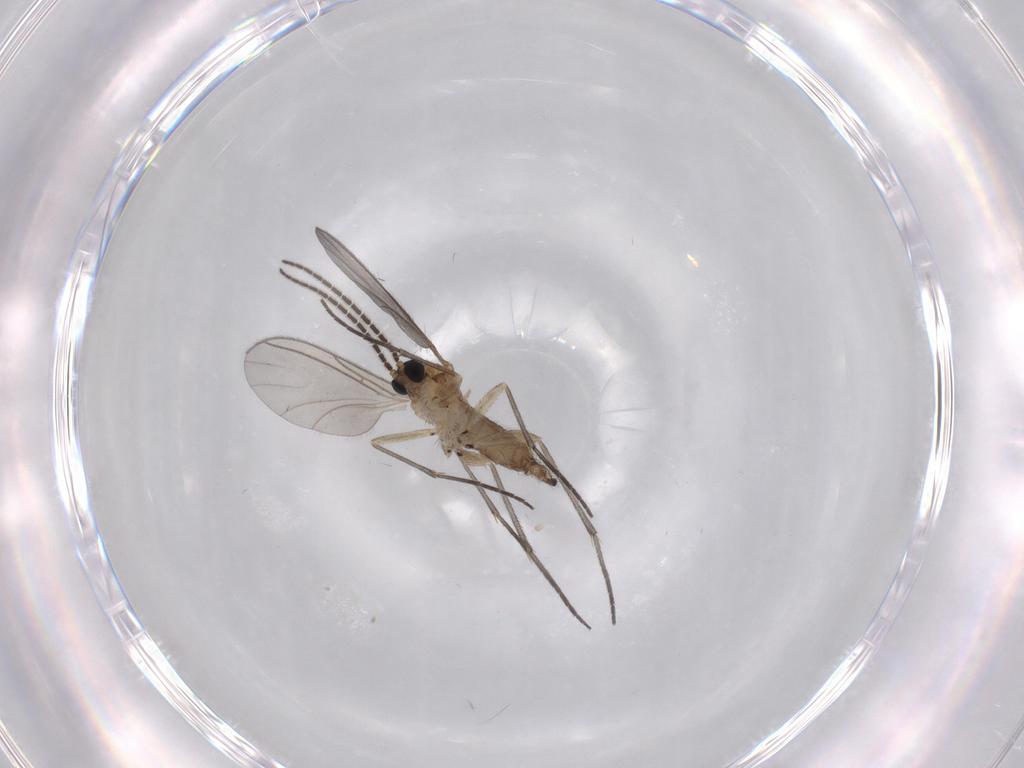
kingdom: Animalia
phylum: Arthropoda
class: Insecta
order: Diptera
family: Sciaridae
